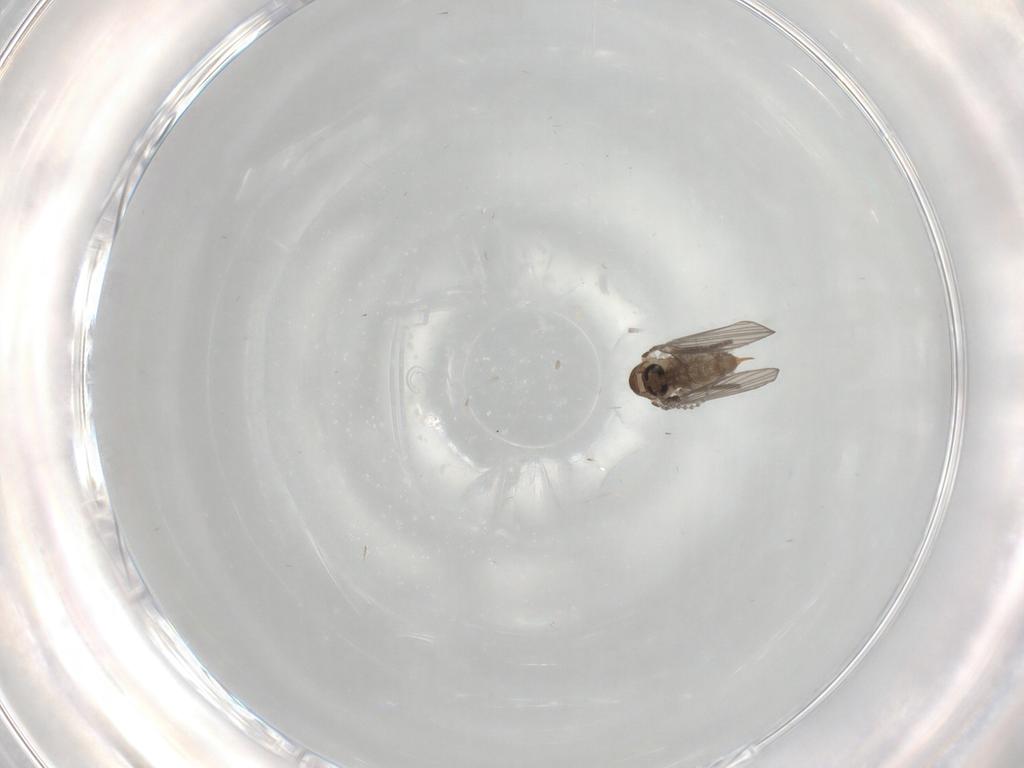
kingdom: Animalia
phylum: Arthropoda
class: Insecta
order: Diptera
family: Psychodidae
